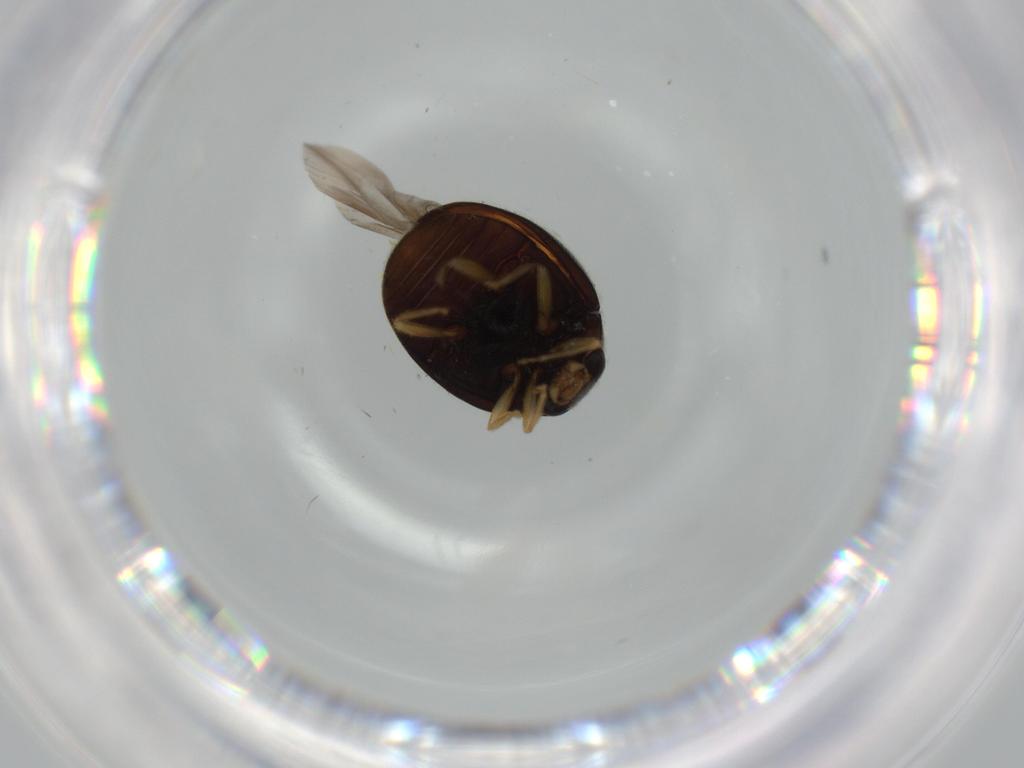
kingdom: Animalia
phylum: Arthropoda
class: Insecta
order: Coleoptera
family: Coccinellidae
